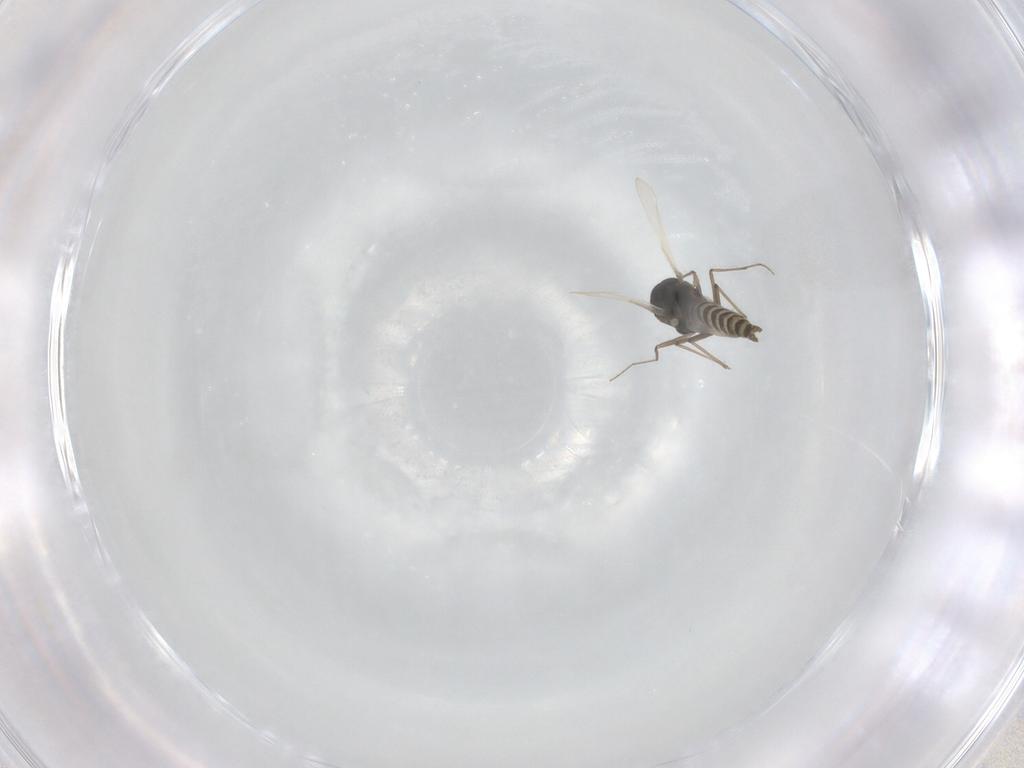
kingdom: Animalia
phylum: Arthropoda
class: Insecta
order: Diptera
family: Chironomidae
